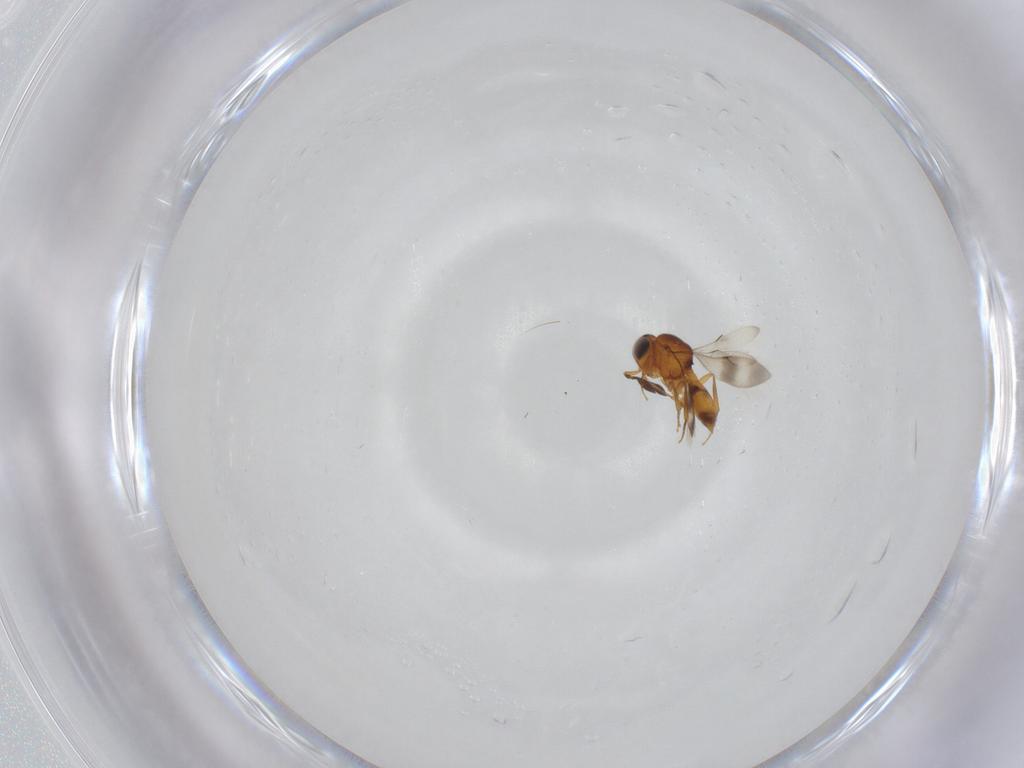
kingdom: Animalia
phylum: Arthropoda
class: Insecta
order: Hymenoptera
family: Scelionidae
